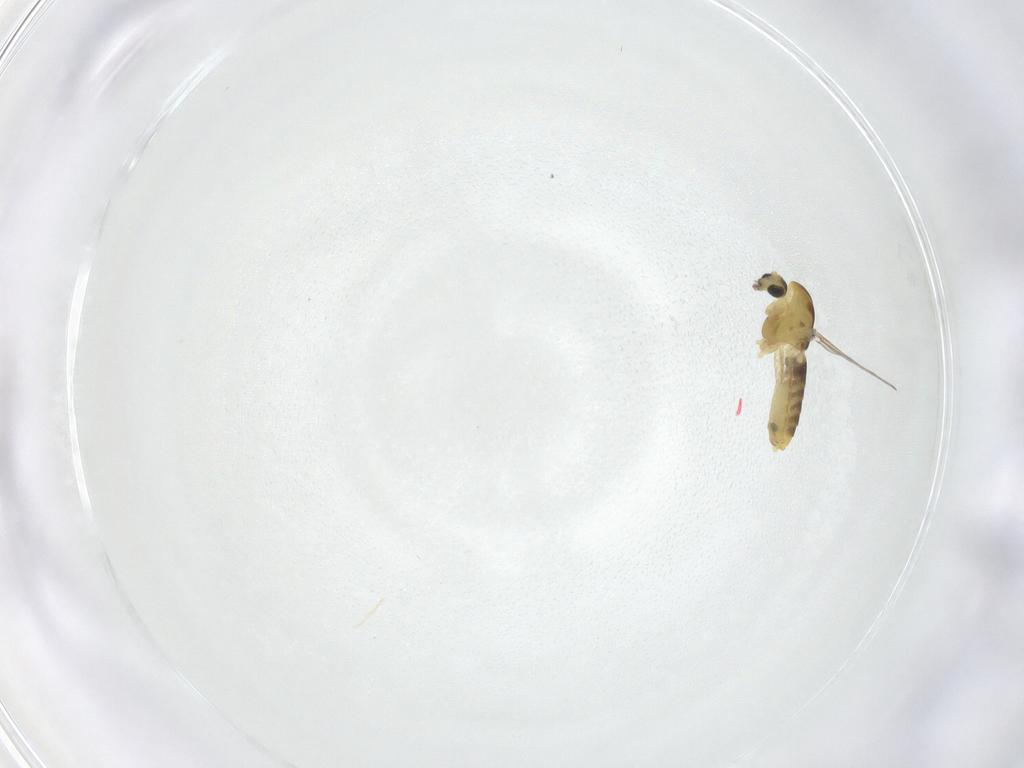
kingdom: Animalia
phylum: Arthropoda
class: Insecta
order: Diptera
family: Chironomidae
